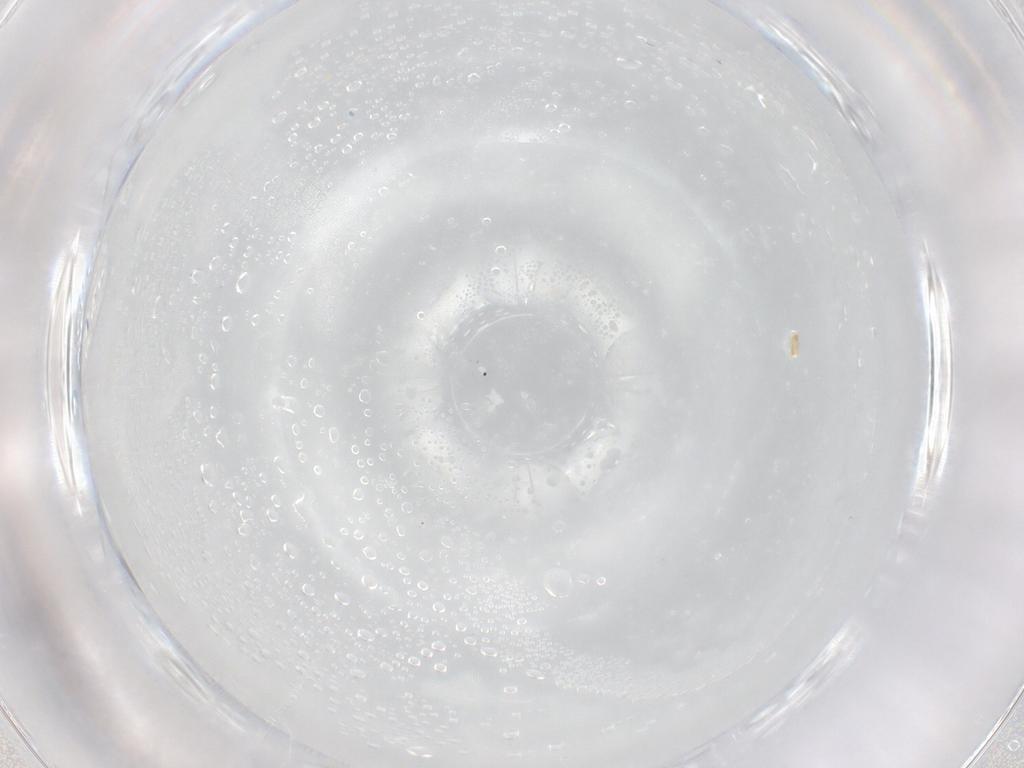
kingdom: Animalia
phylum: Arthropoda
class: Insecta
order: Diptera
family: Cecidomyiidae
